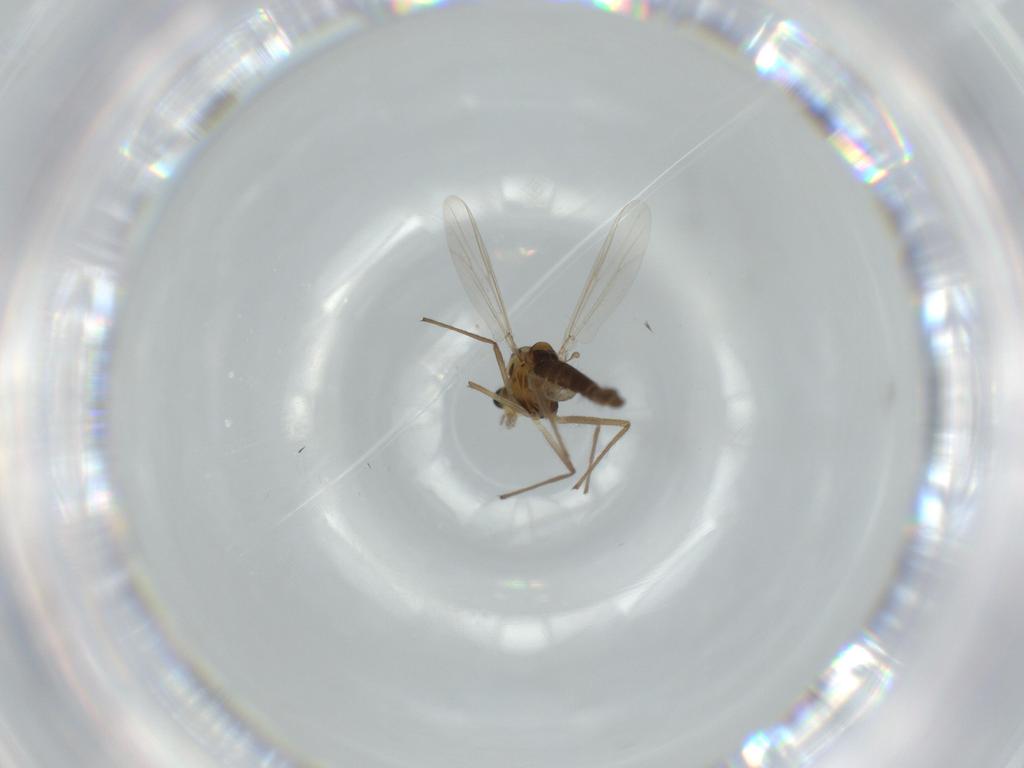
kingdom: Animalia
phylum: Arthropoda
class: Insecta
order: Diptera
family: Chironomidae
